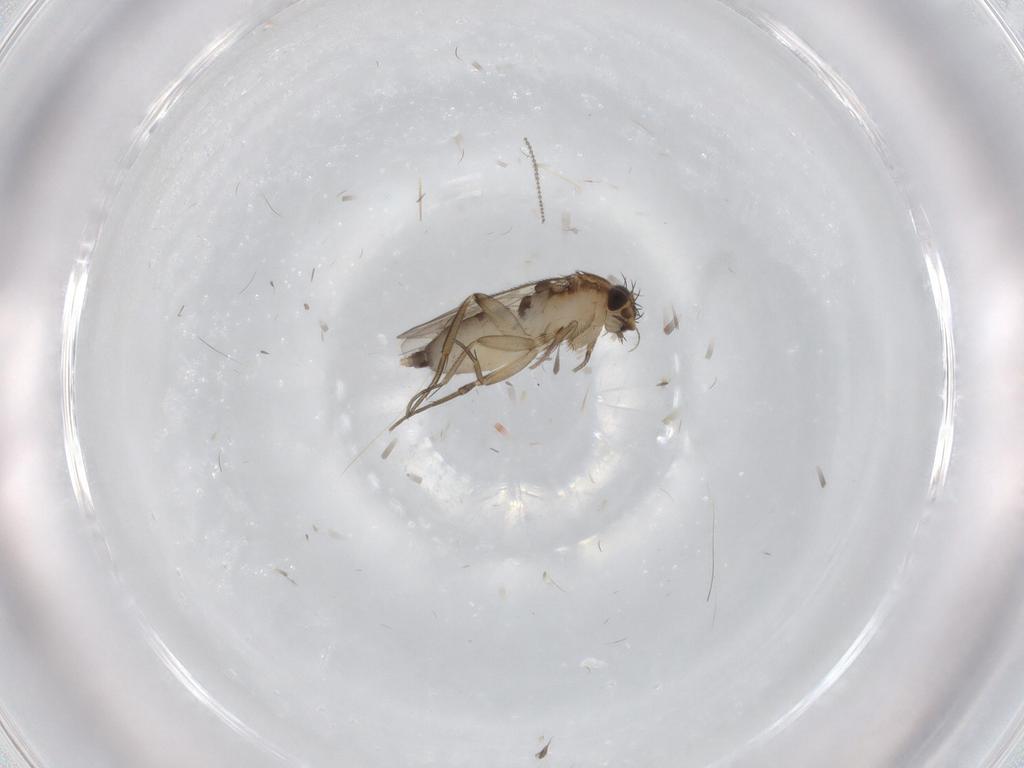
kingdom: Animalia
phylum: Arthropoda
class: Insecta
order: Diptera
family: Phoridae
